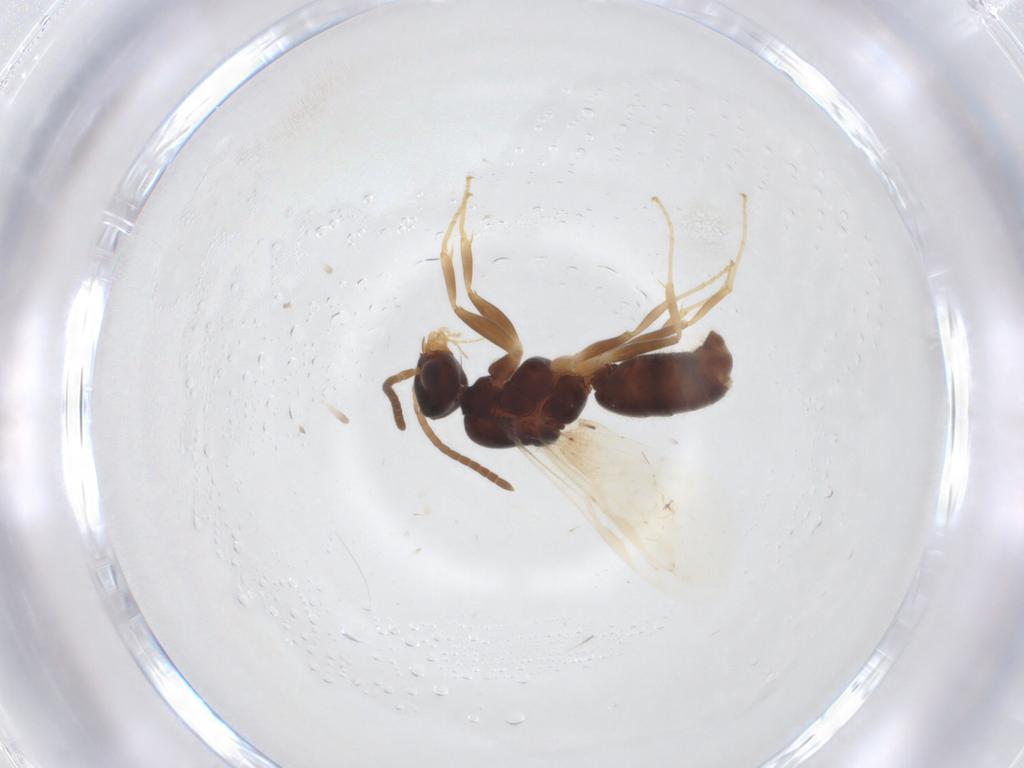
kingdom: Animalia
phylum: Arthropoda
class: Insecta
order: Hymenoptera
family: Formicidae
